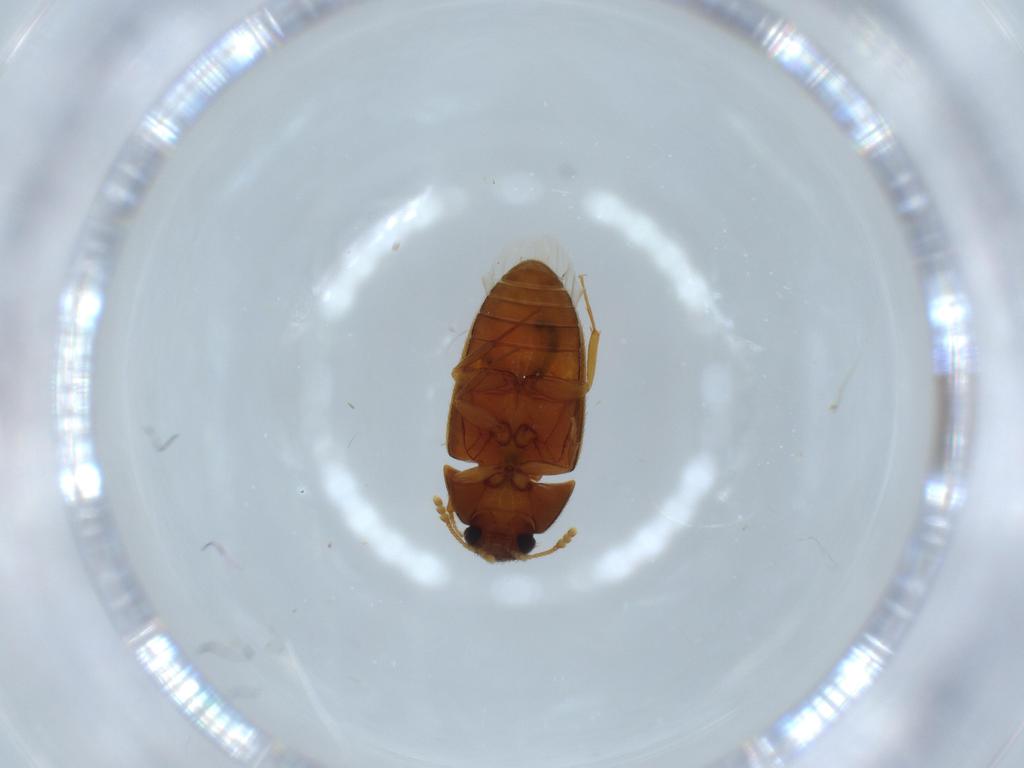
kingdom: Animalia
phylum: Arthropoda
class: Insecta
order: Coleoptera
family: Mycetophagidae
